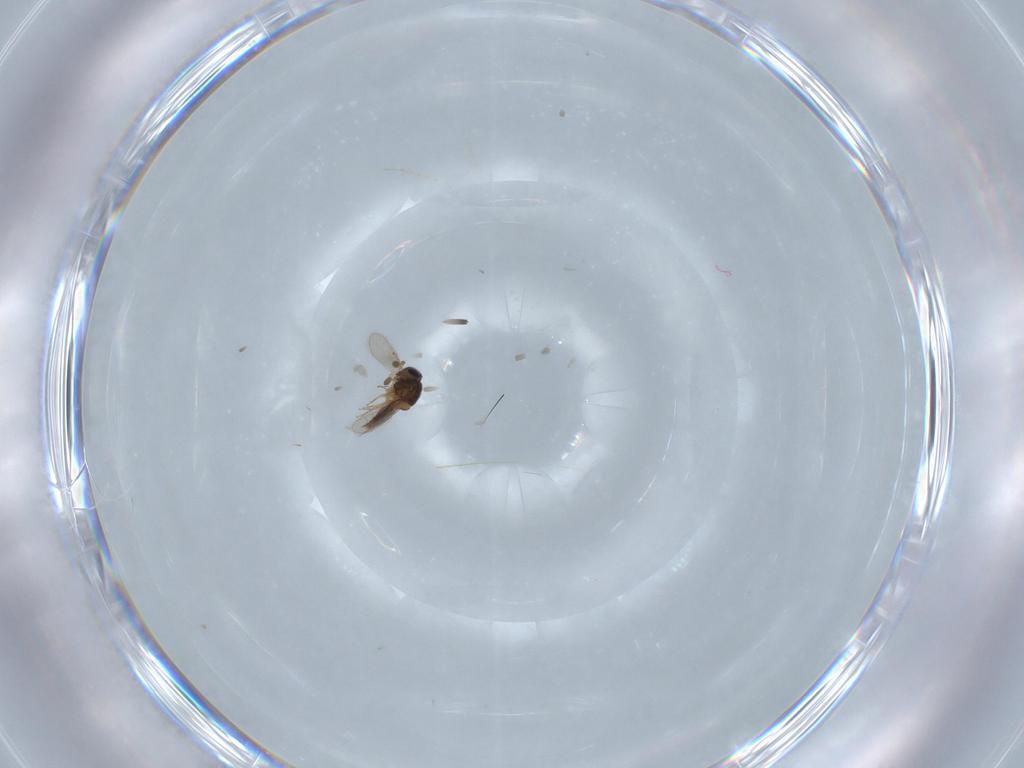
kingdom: Animalia
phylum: Arthropoda
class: Insecta
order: Hymenoptera
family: Scelionidae
